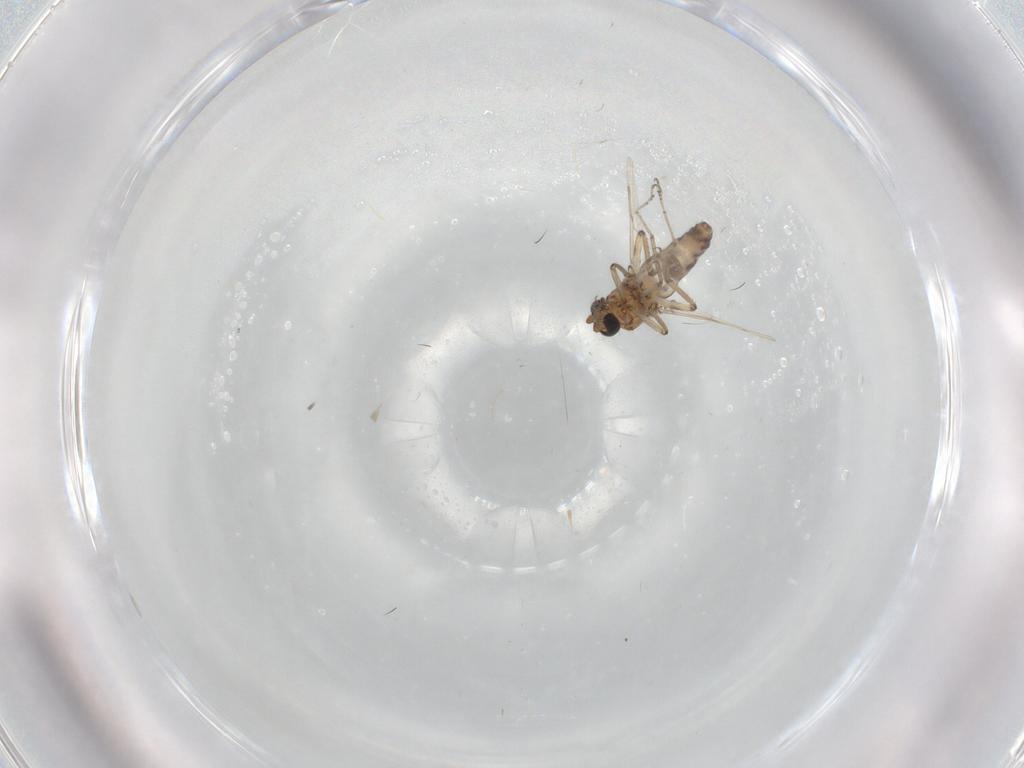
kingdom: Animalia
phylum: Arthropoda
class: Insecta
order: Diptera
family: Ceratopogonidae
